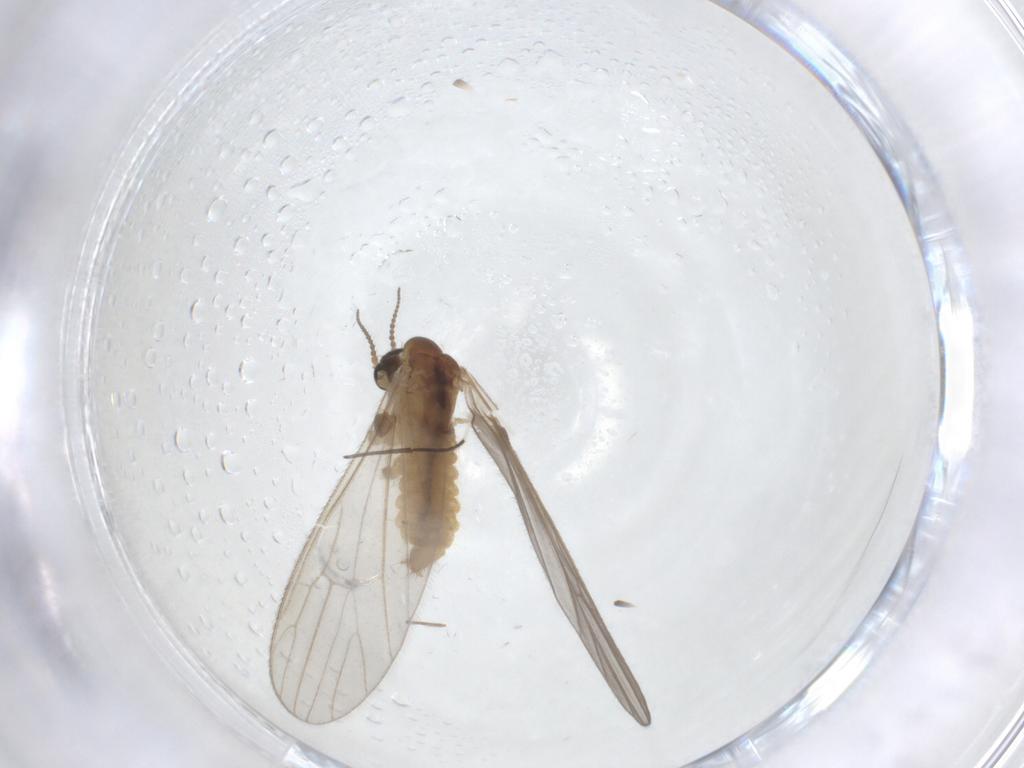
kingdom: Animalia
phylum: Arthropoda
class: Insecta
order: Diptera
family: Limoniidae
